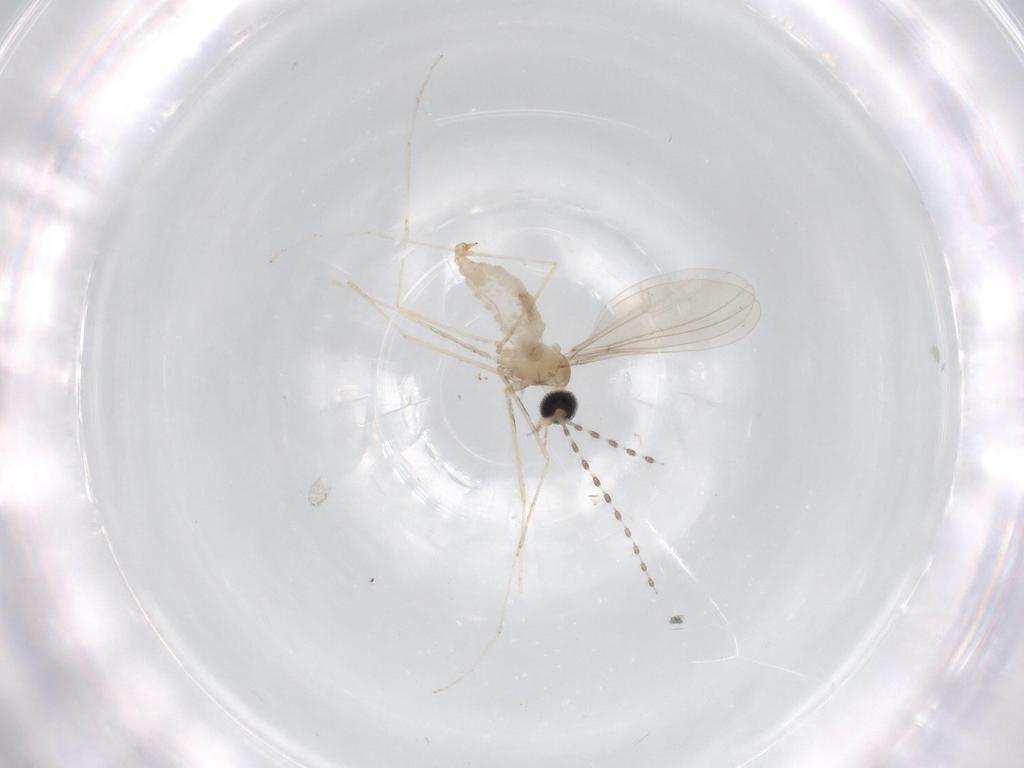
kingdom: Animalia
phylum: Arthropoda
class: Insecta
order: Diptera
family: Cecidomyiidae
